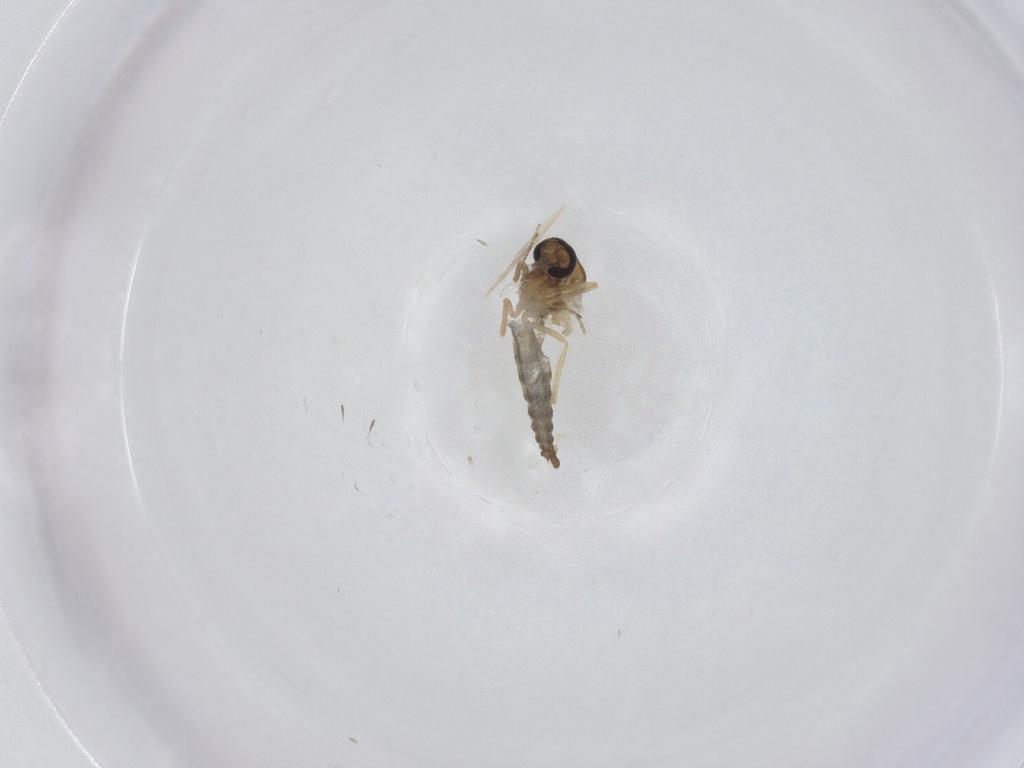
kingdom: Animalia
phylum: Arthropoda
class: Insecta
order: Diptera
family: Ceratopogonidae
